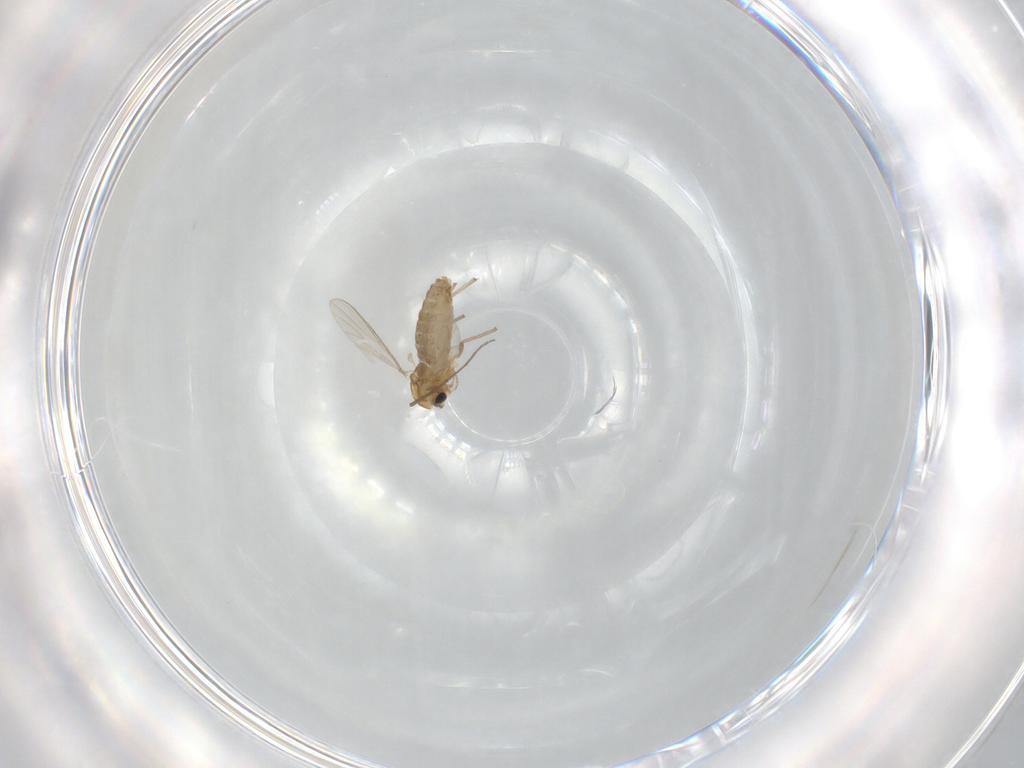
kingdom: Animalia
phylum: Arthropoda
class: Insecta
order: Diptera
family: Chironomidae
